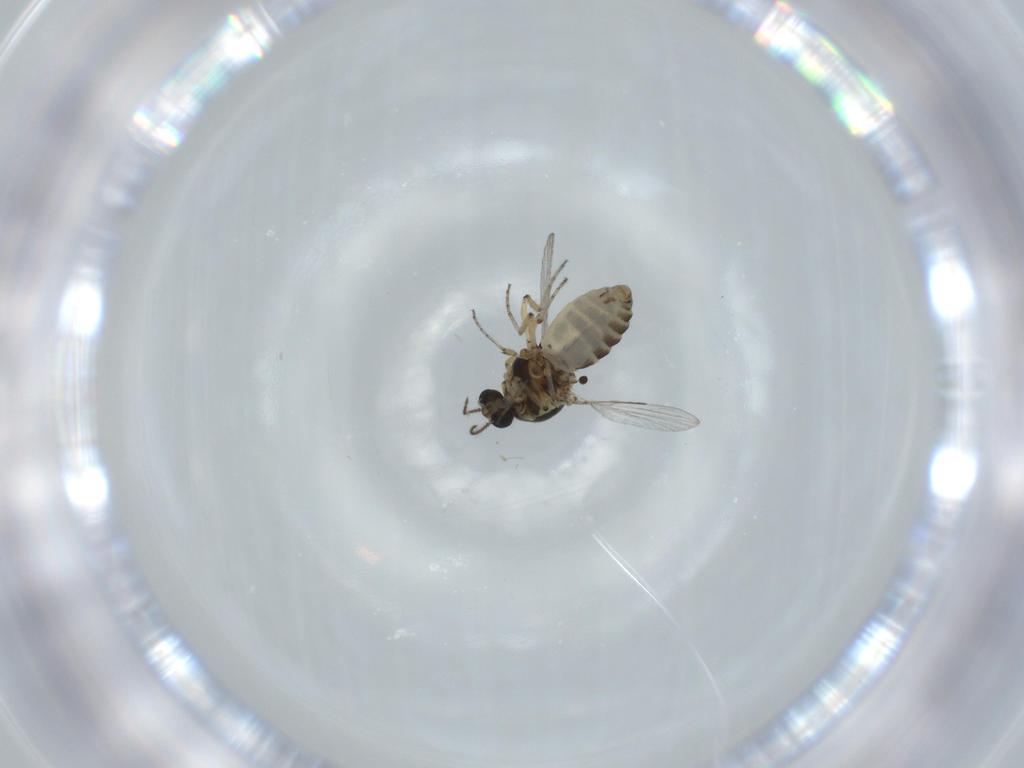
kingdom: Animalia
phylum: Arthropoda
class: Insecta
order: Diptera
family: Ceratopogonidae
